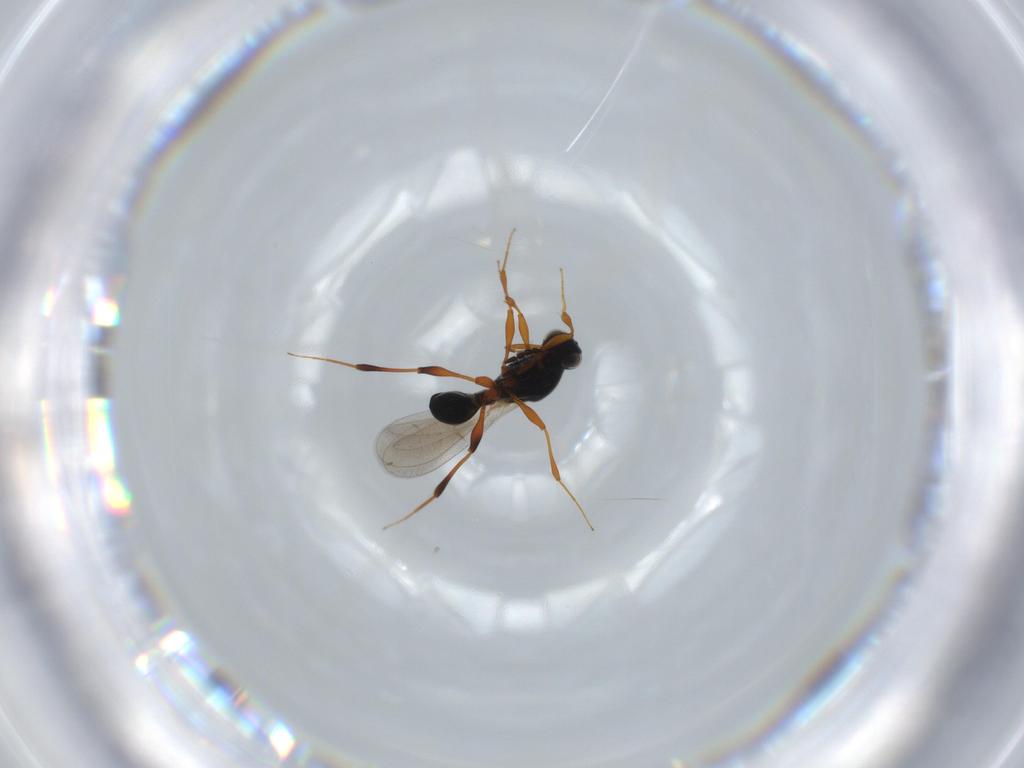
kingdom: Animalia
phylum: Arthropoda
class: Insecta
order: Hymenoptera
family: Platygastridae
